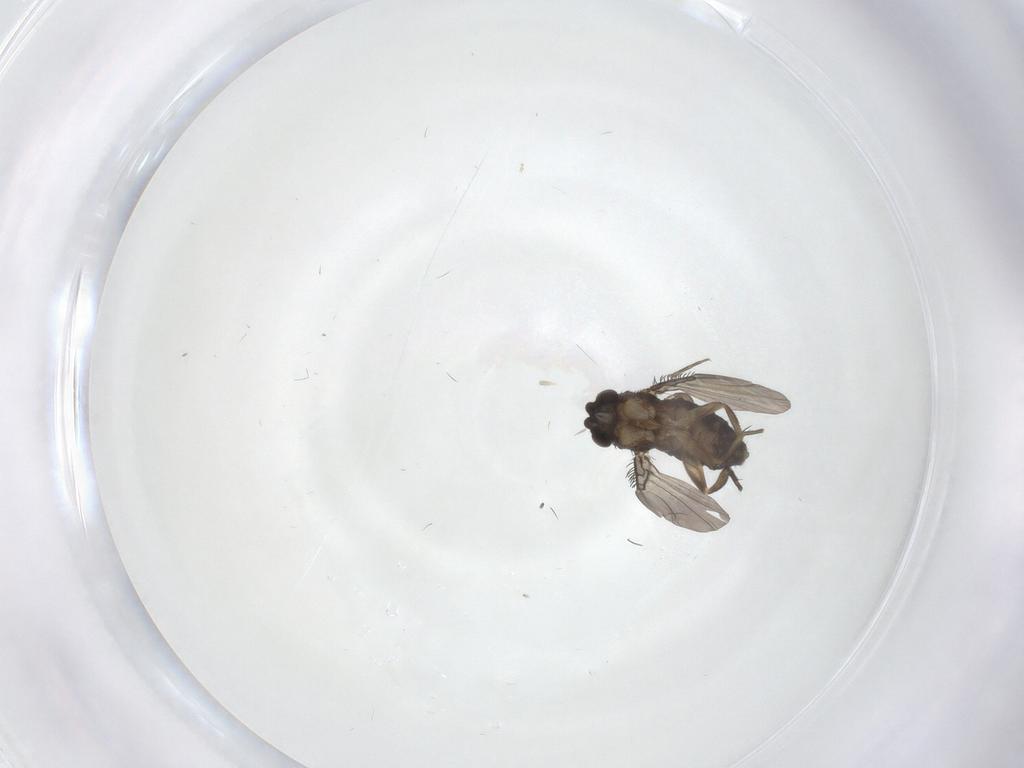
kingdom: Animalia
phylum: Arthropoda
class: Insecta
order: Diptera
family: Phoridae
